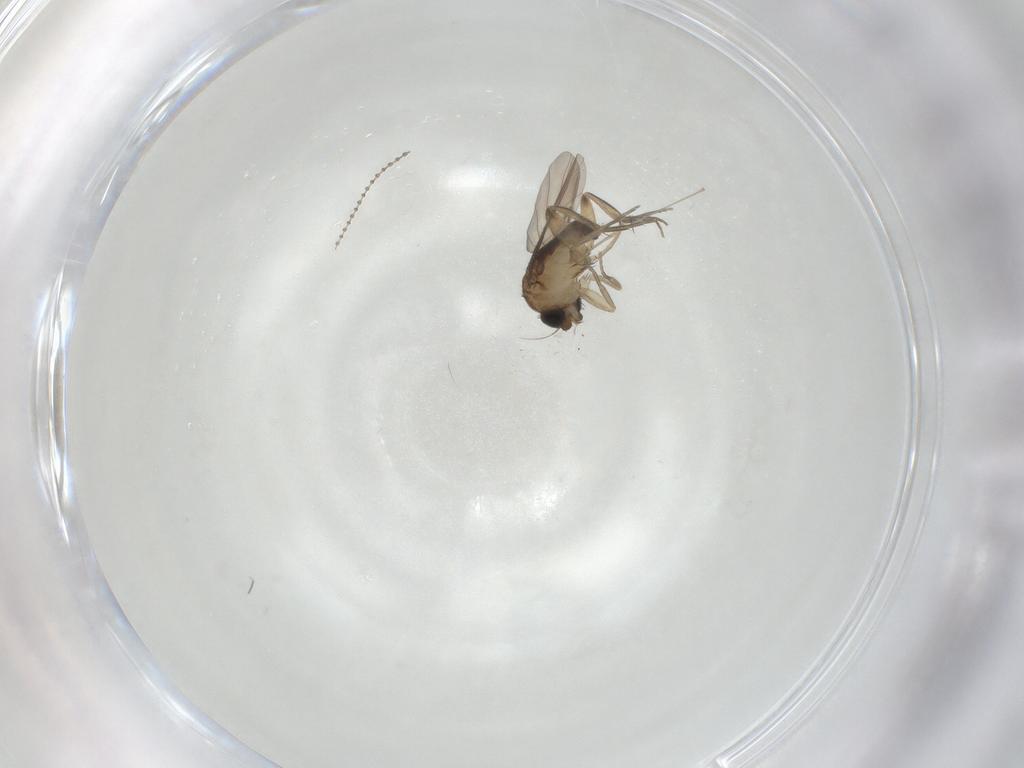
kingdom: Animalia
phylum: Arthropoda
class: Insecta
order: Diptera
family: Phoridae
